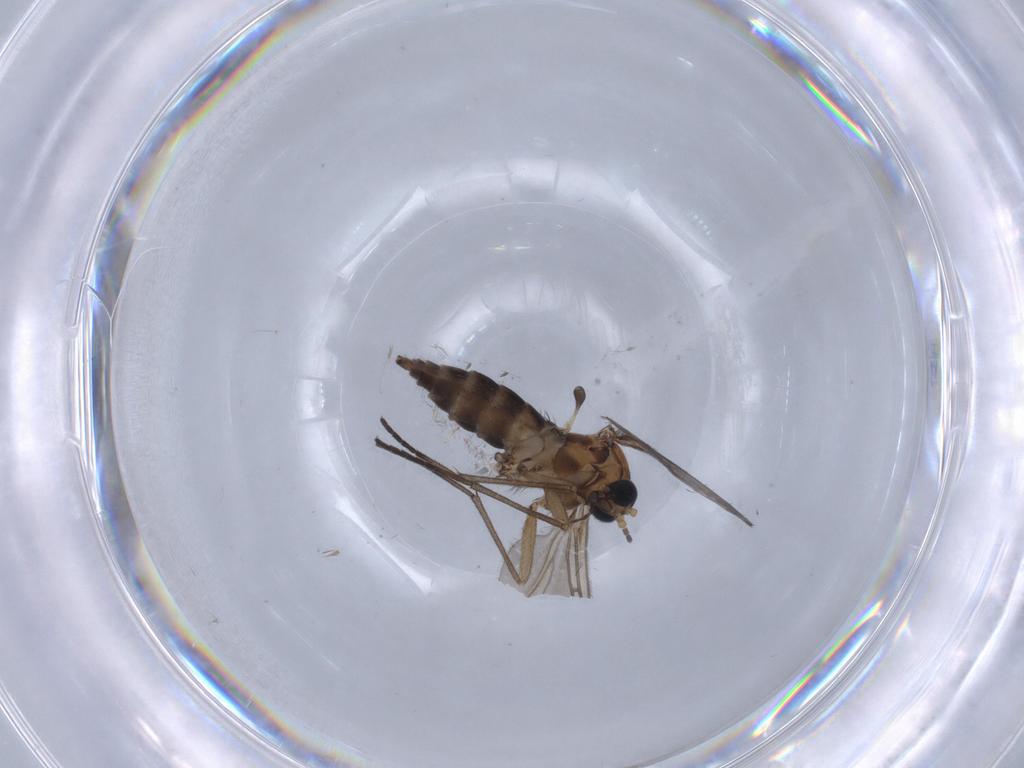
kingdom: Animalia
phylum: Arthropoda
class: Insecta
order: Diptera
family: Sciaridae
